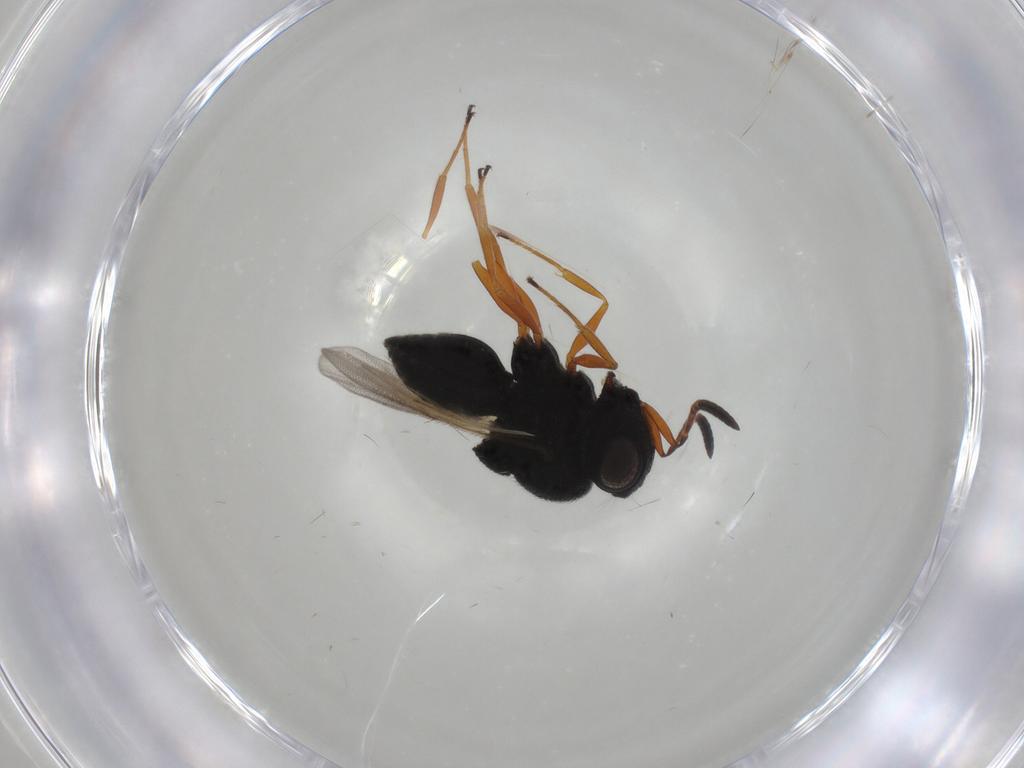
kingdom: Animalia
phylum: Arthropoda
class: Insecta
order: Hymenoptera
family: Scelionidae
